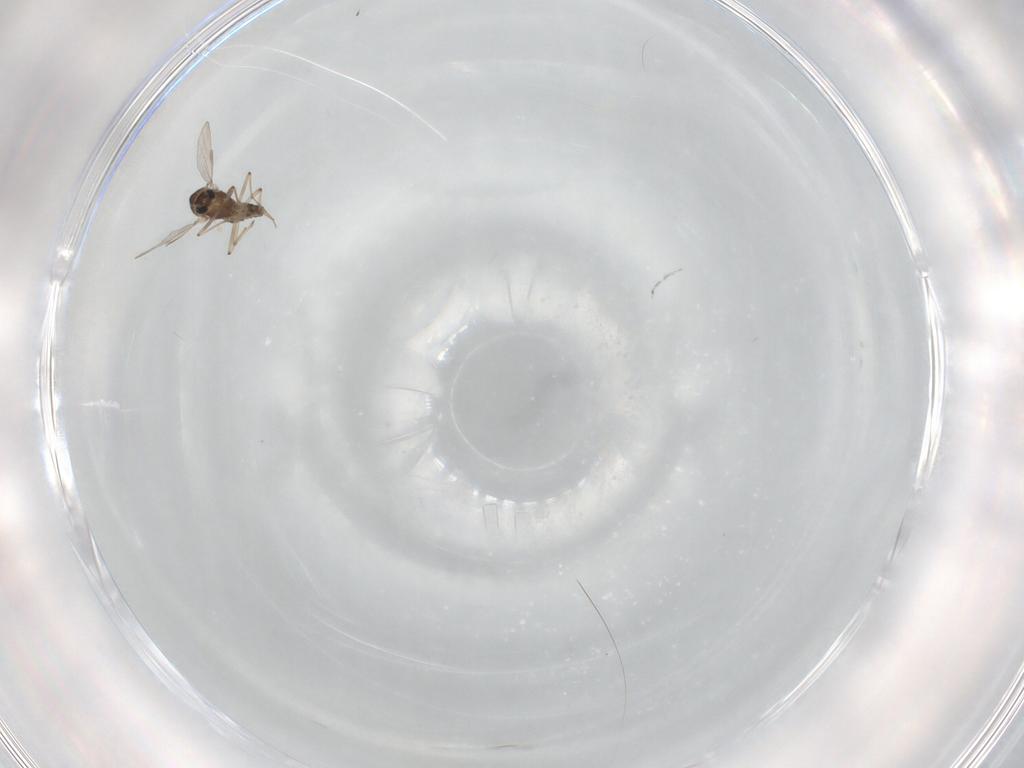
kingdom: Animalia
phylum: Arthropoda
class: Insecta
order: Diptera
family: Chironomidae
